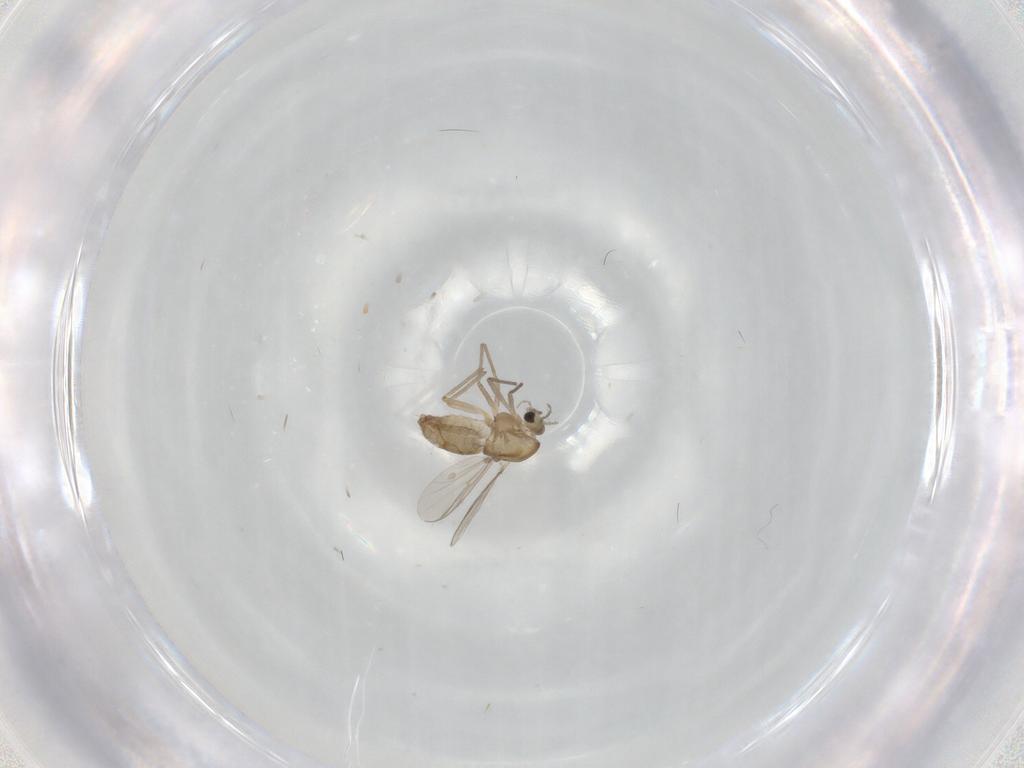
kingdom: Animalia
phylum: Arthropoda
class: Insecta
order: Diptera
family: Chironomidae
